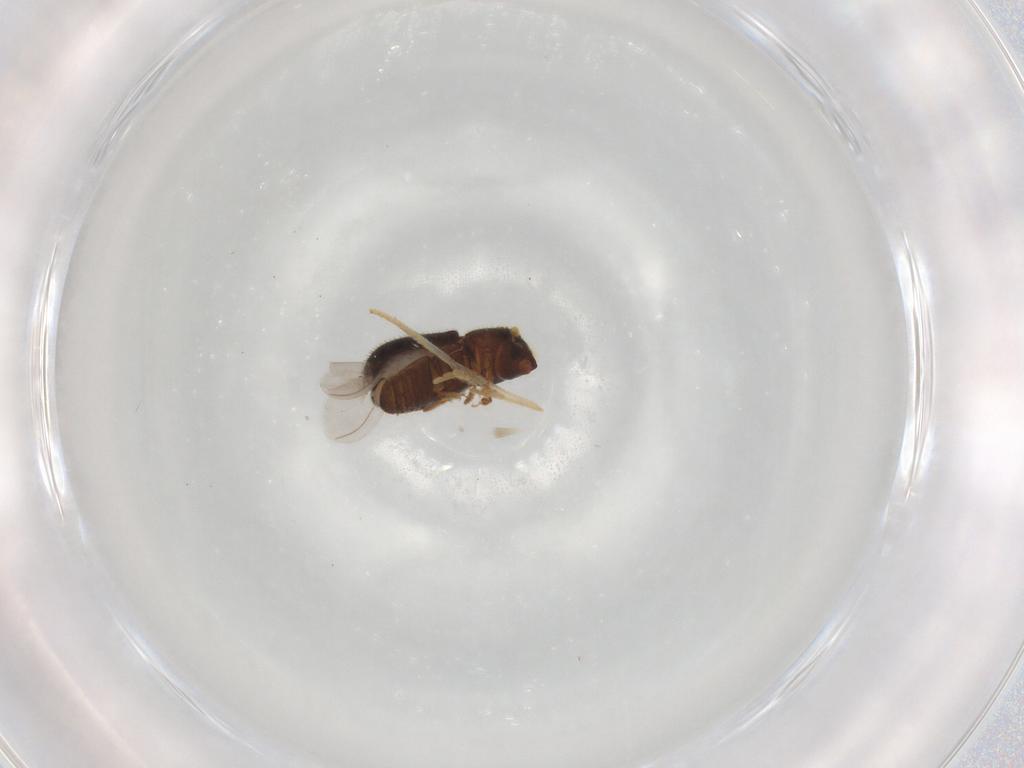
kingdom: Animalia
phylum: Arthropoda
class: Insecta
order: Coleoptera
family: Curculionidae
